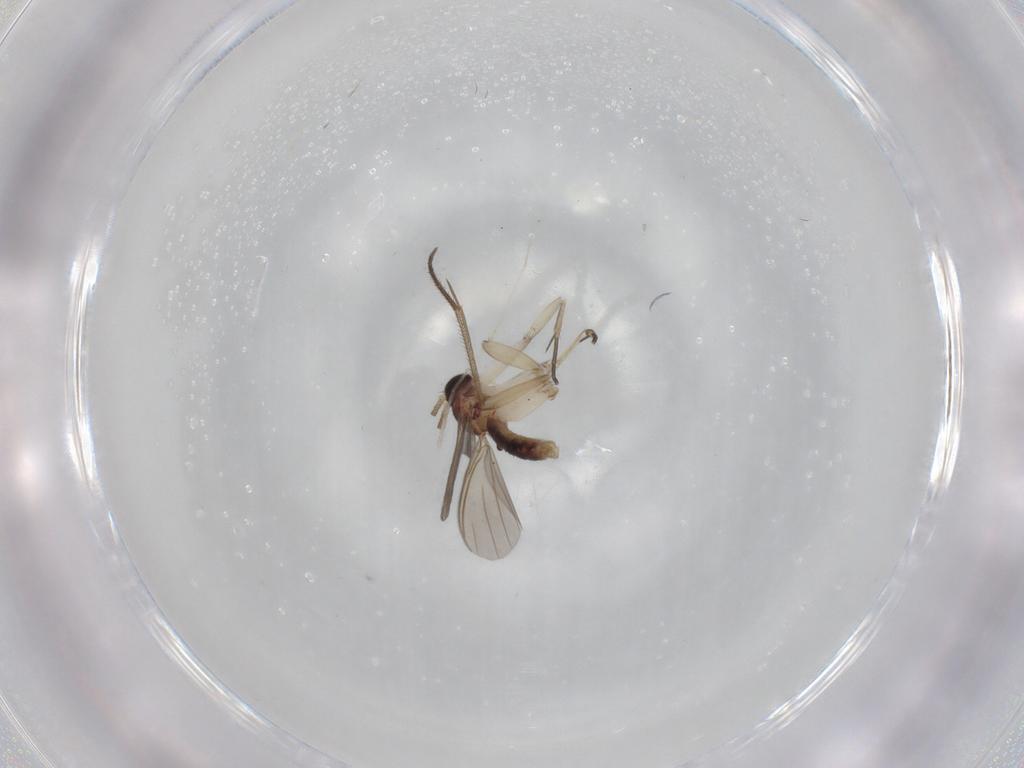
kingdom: Animalia
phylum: Arthropoda
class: Insecta
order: Diptera
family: Mycetophilidae
